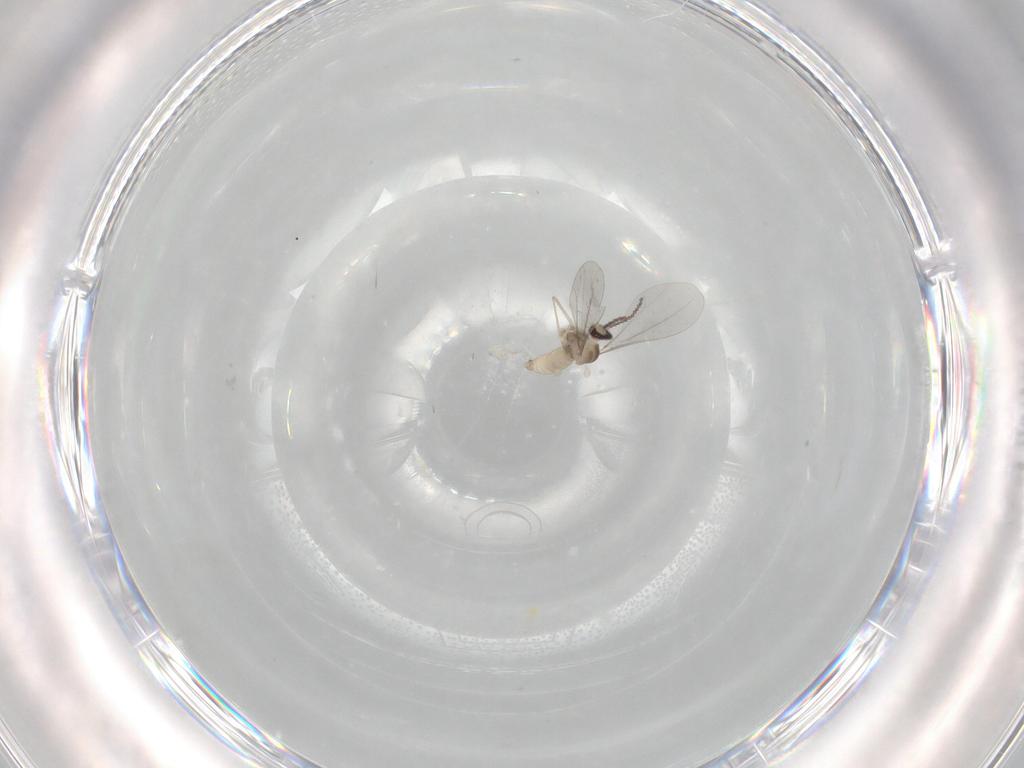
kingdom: Animalia
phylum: Arthropoda
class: Insecta
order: Diptera
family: Cecidomyiidae
